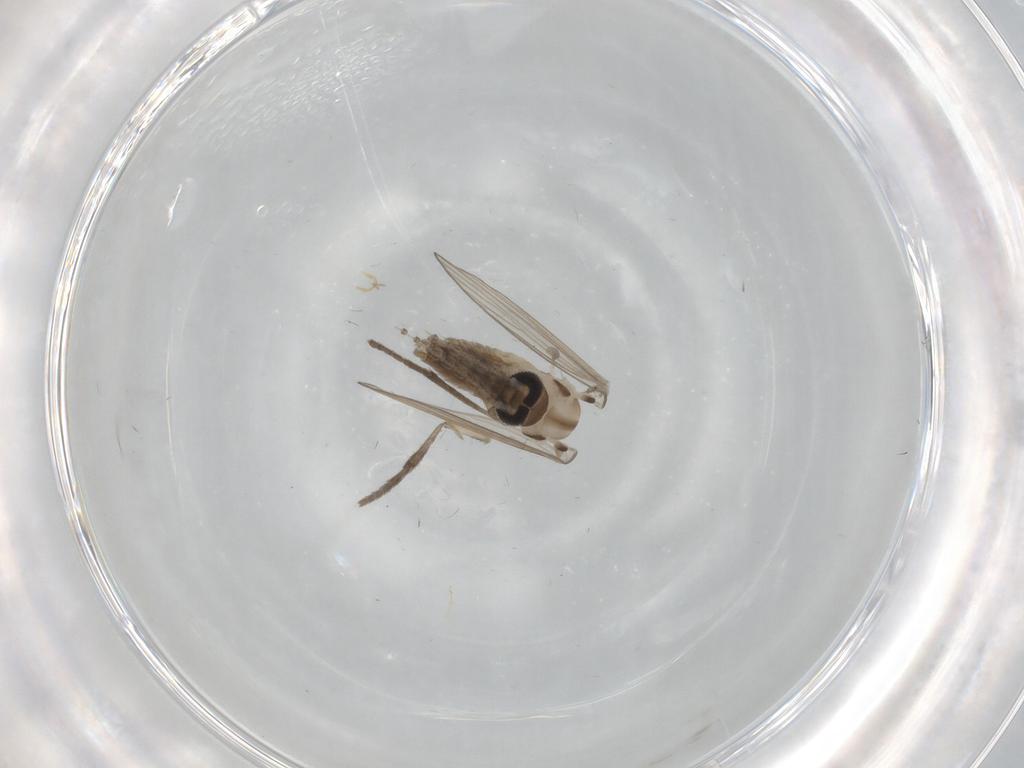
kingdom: Animalia
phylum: Arthropoda
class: Insecta
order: Diptera
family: Psychodidae
